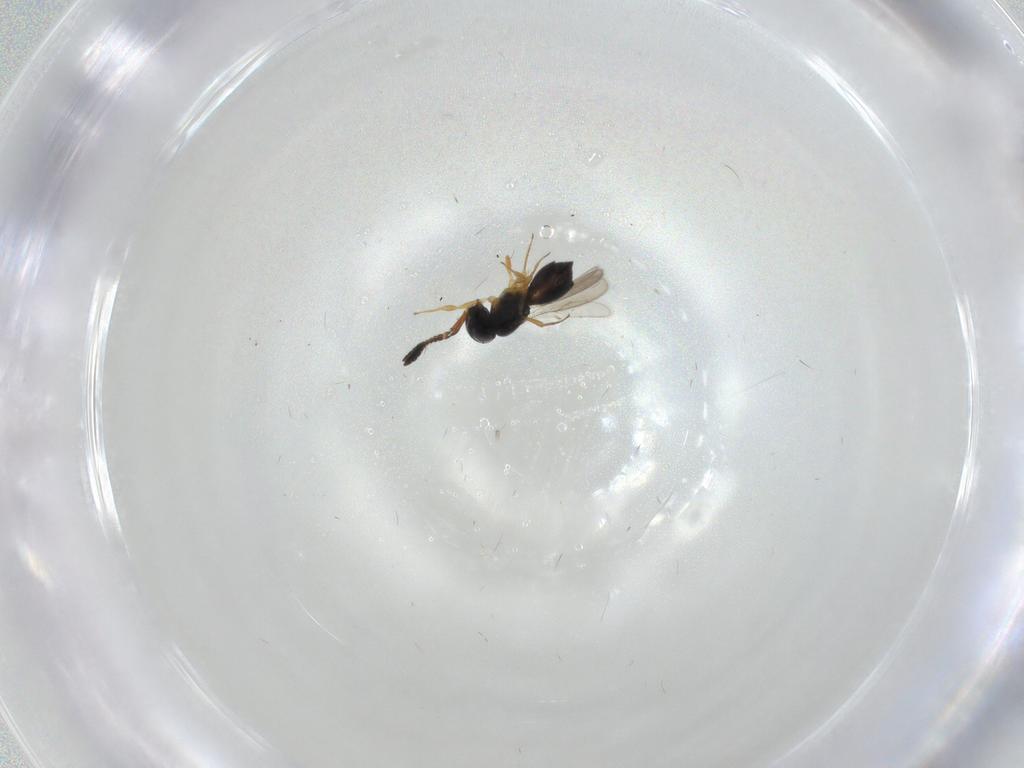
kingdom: Animalia
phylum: Arthropoda
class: Insecta
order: Hymenoptera
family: Scelionidae
